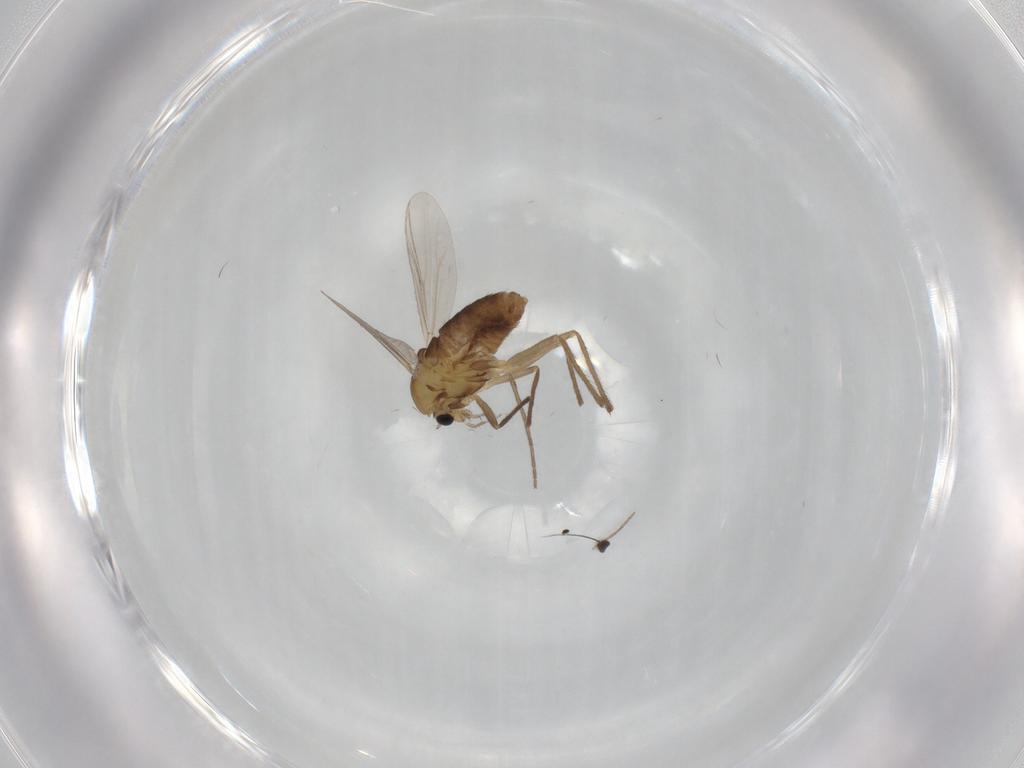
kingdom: Animalia
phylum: Arthropoda
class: Insecta
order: Diptera
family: Chironomidae
